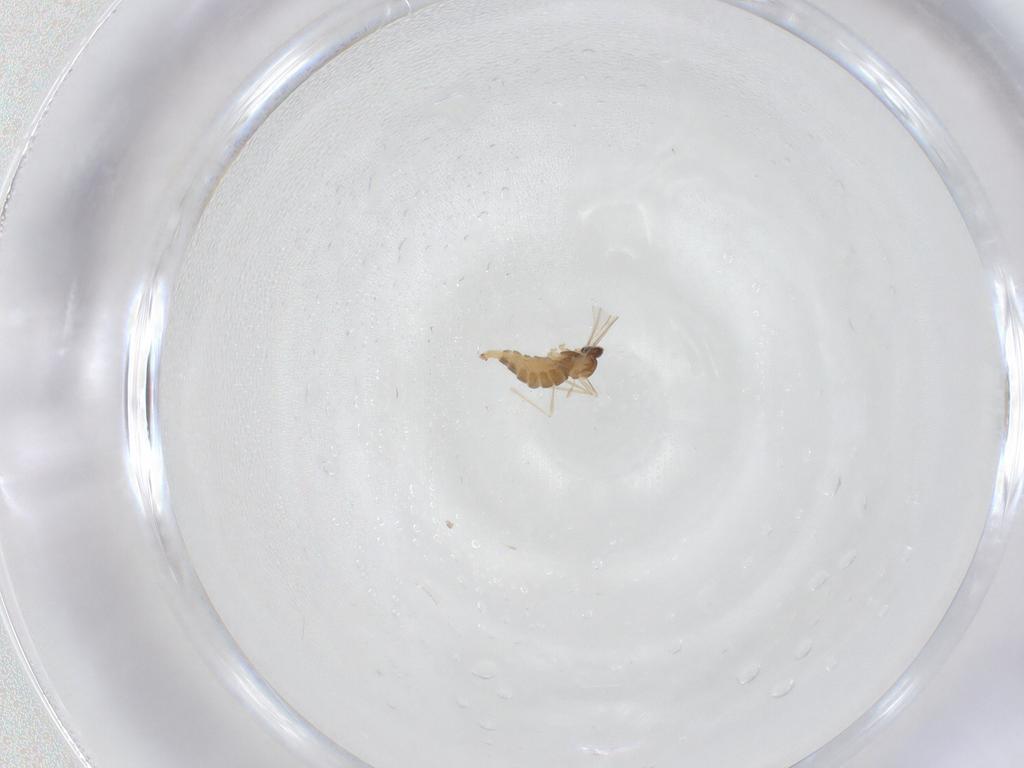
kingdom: Animalia
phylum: Arthropoda
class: Insecta
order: Diptera
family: Cecidomyiidae
